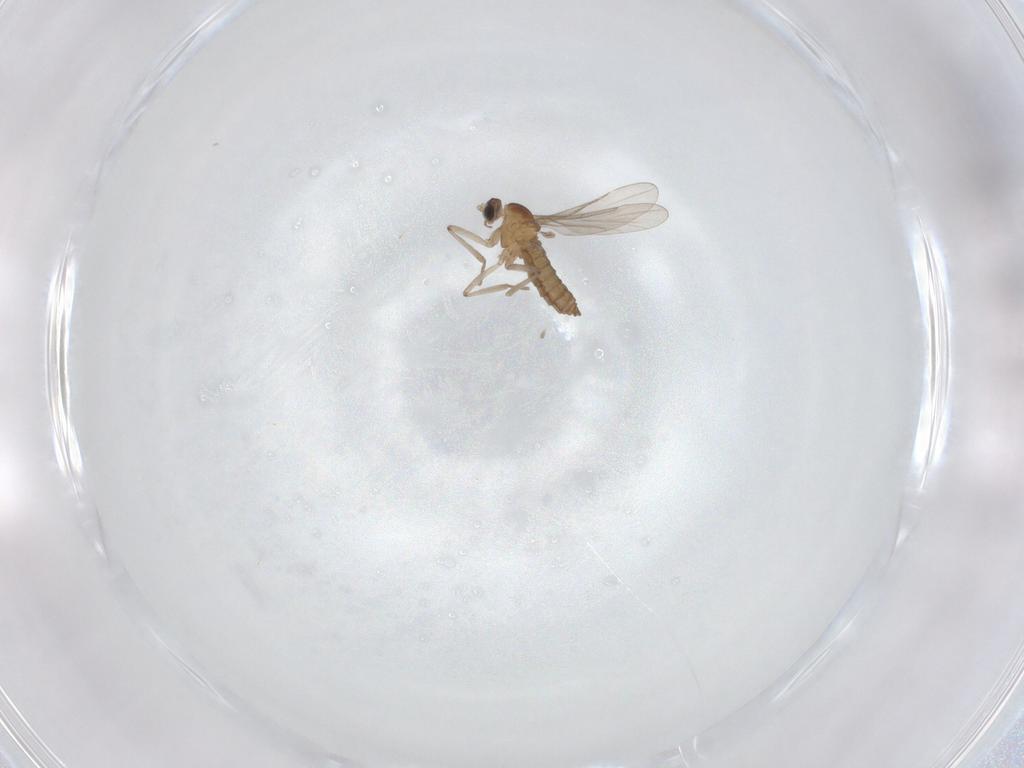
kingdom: Animalia
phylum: Arthropoda
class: Insecta
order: Diptera
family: Cecidomyiidae
